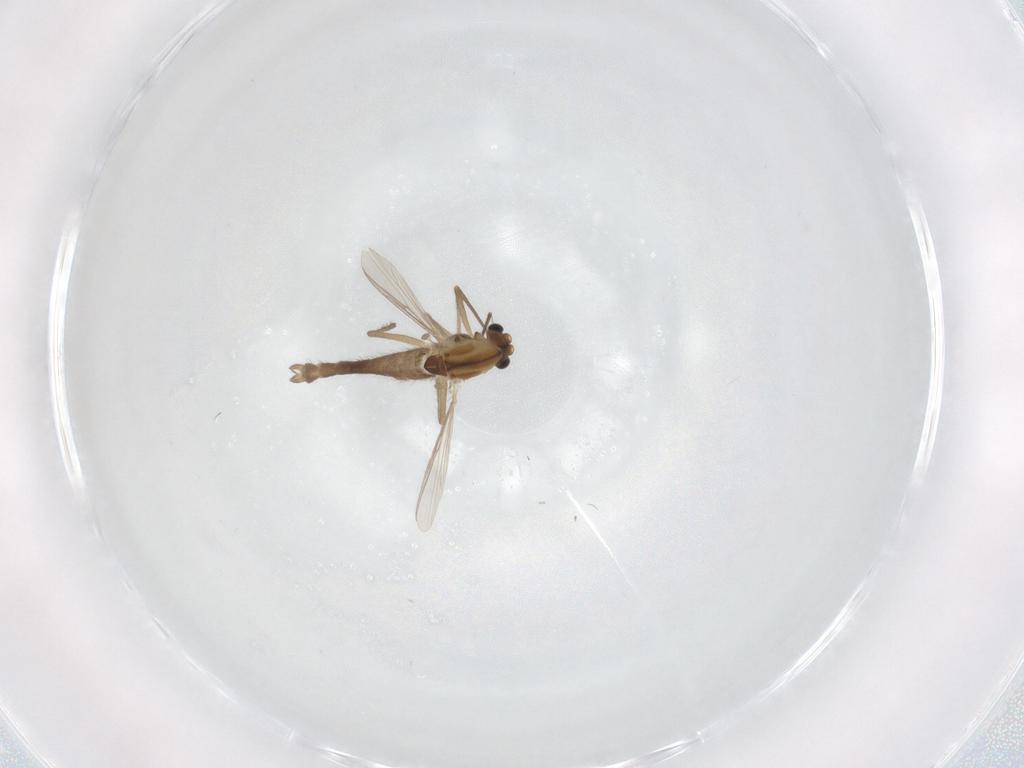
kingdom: Animalia
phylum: Arthropoda
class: Insecta
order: Diptera
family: Chironomidae
